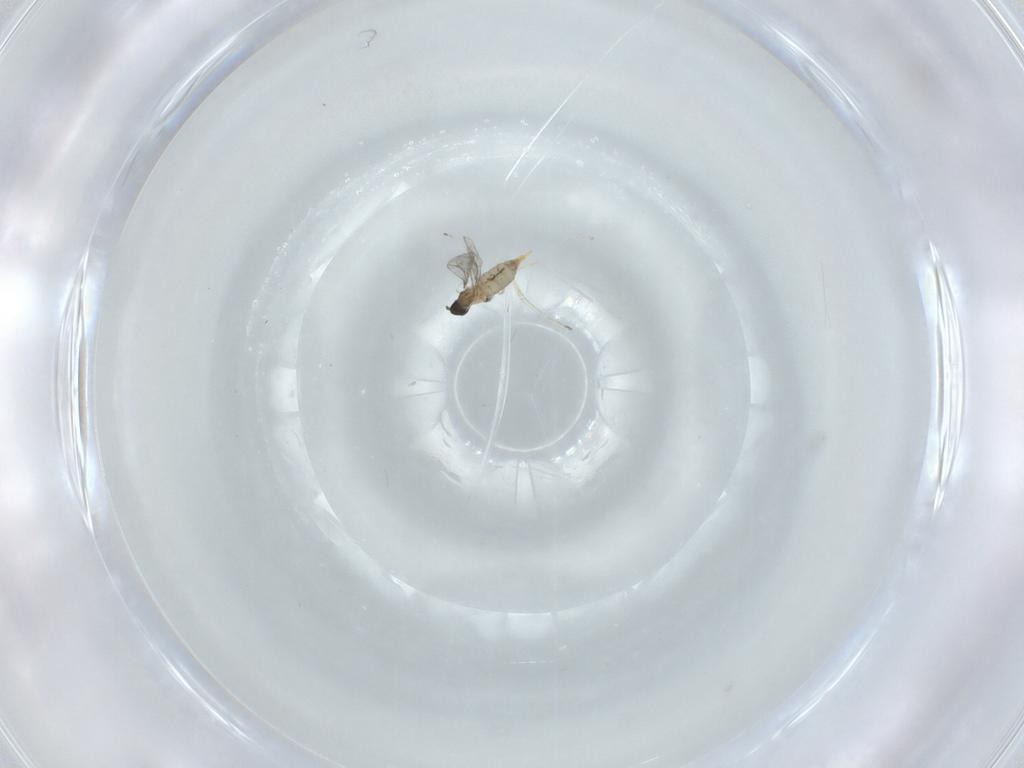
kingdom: Animalia
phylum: Arthropoda
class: Insecta
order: Diptera
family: Cecidomyiidae
